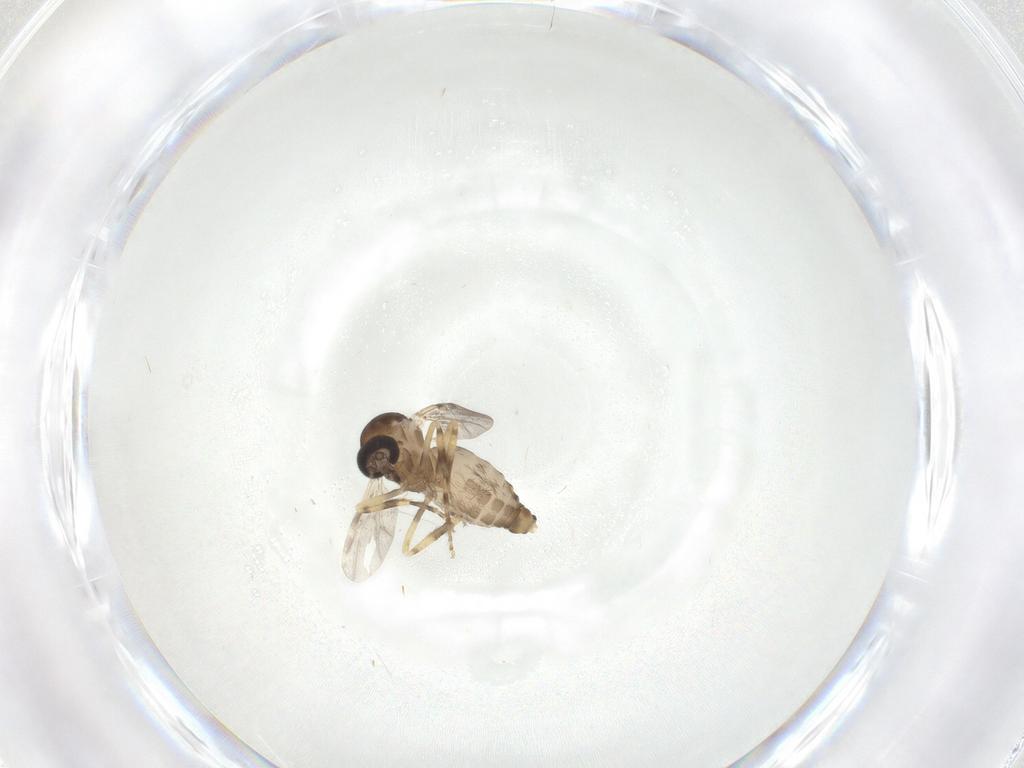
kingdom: Animalia
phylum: Arthropoda
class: Insecta
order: Diptera
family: Ceratopogonidae
